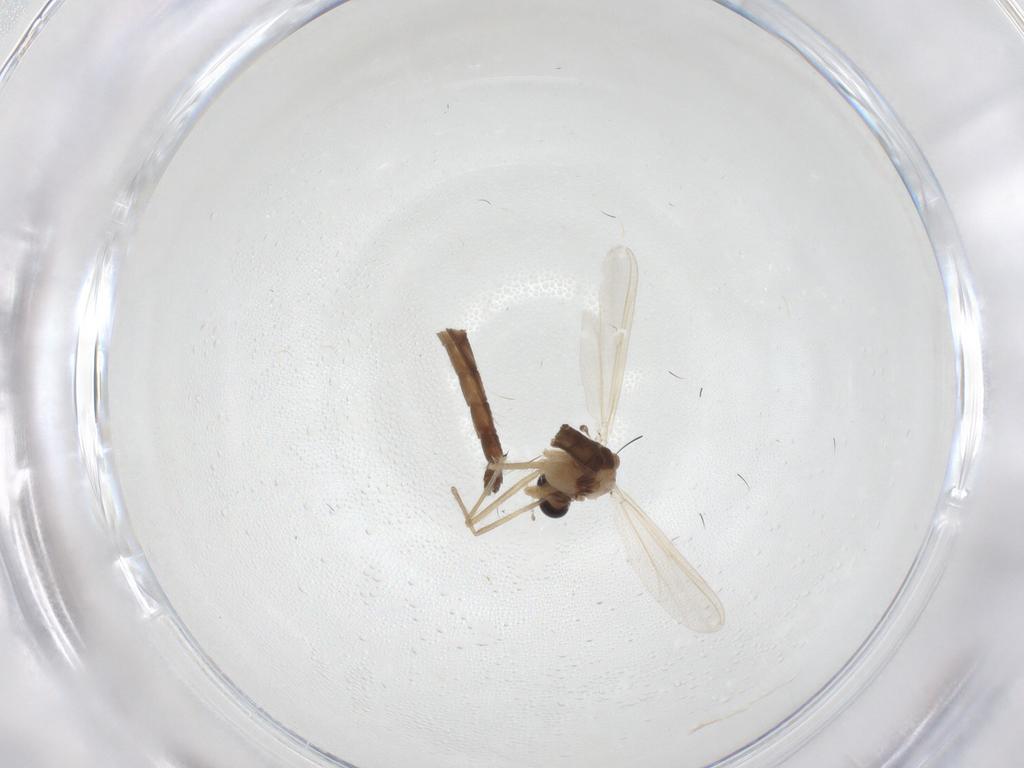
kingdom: Animalia
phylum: Arthropoda
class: Insecta
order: Diptera
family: Chironomidae
